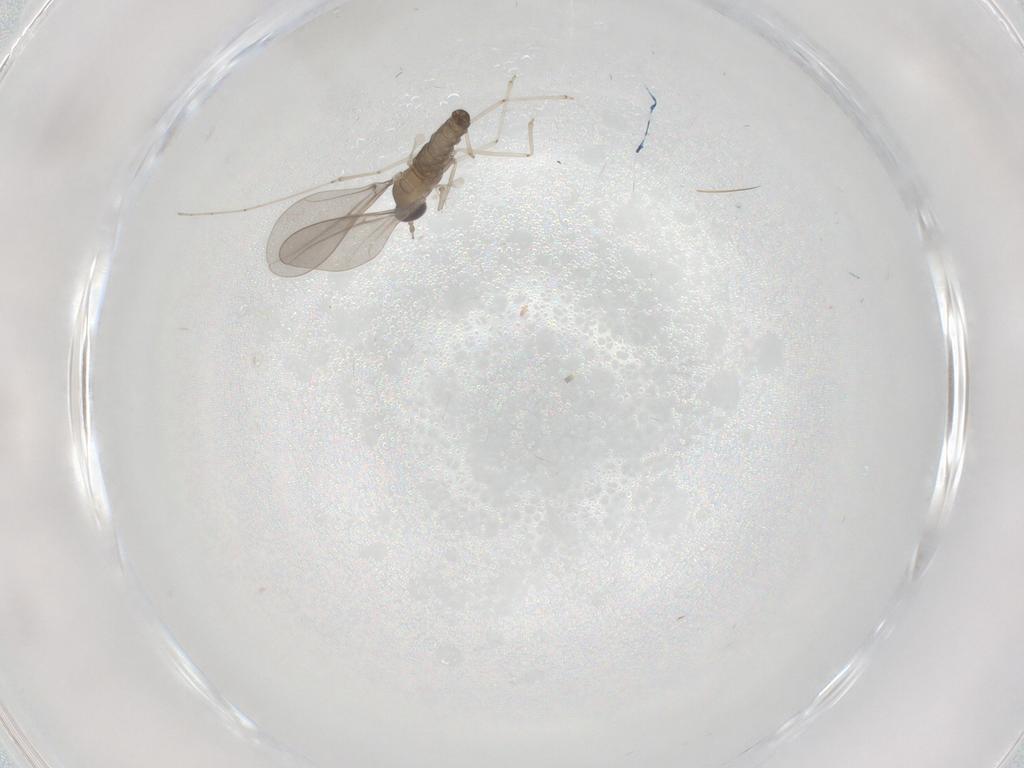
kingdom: Animalia
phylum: Arthropoda
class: Insecta
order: Diptera
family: Cecidomyiidae
